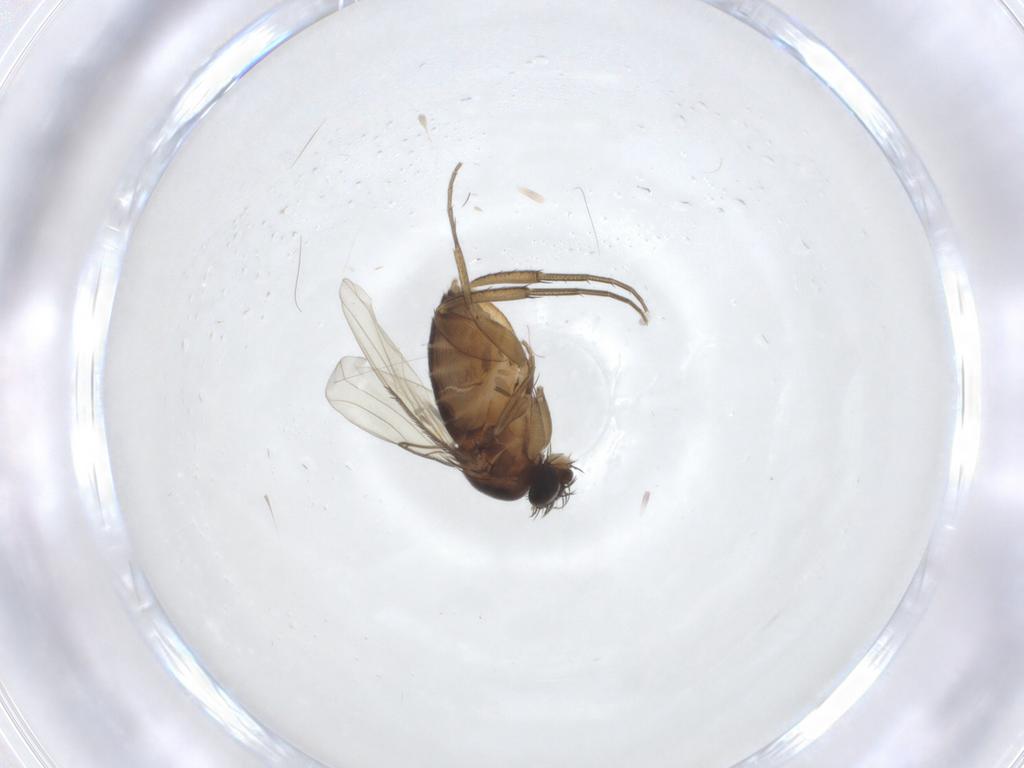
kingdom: Animalia
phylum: Arthropoda
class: Insecta
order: Diptera
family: Phoridae
